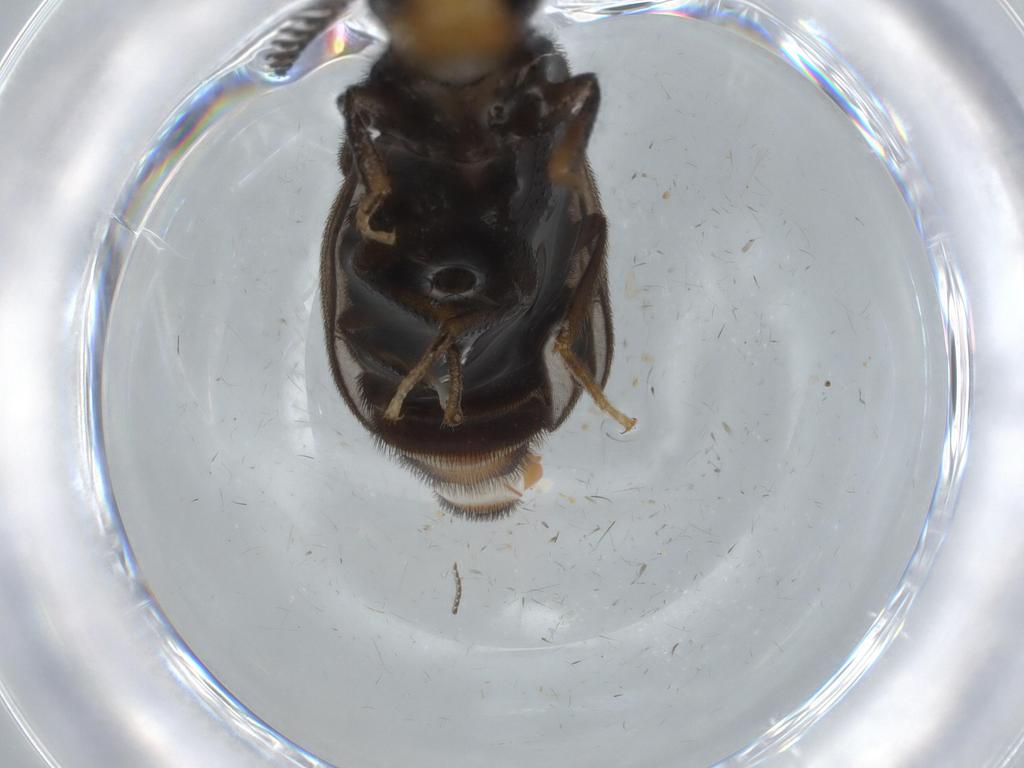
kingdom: Animalia
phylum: Arthropoda
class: Insecta
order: Coleoptera
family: Phengodidae
